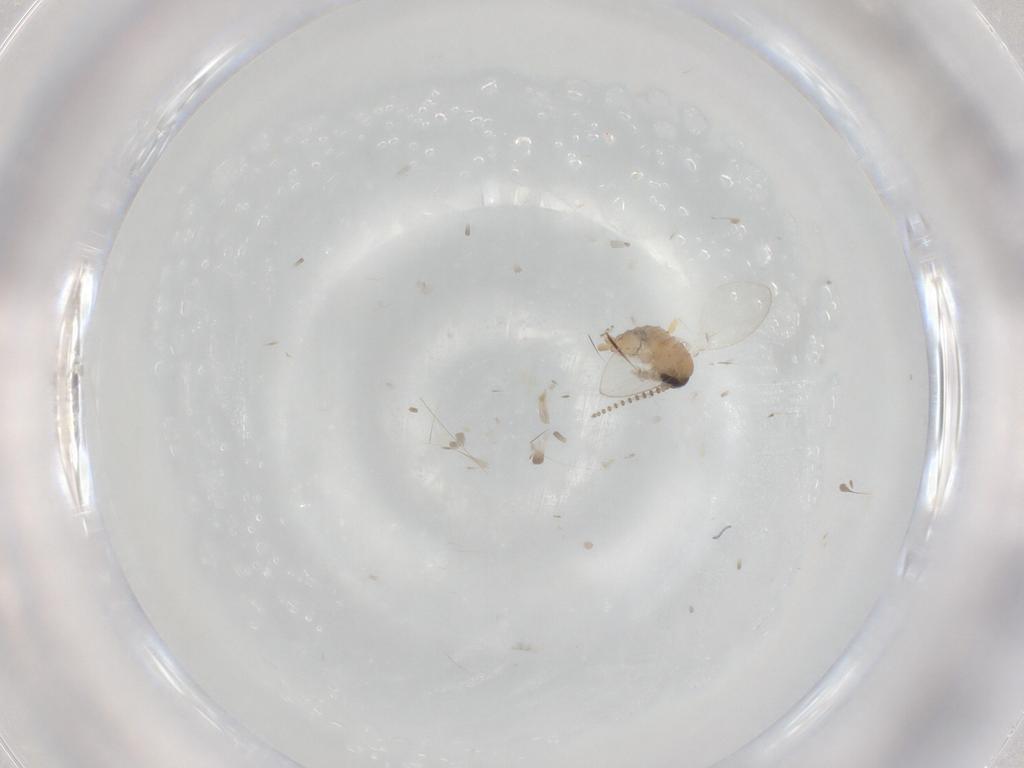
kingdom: Animalia
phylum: Arthropoda
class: Insecta
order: Diptera
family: Psychodidae
